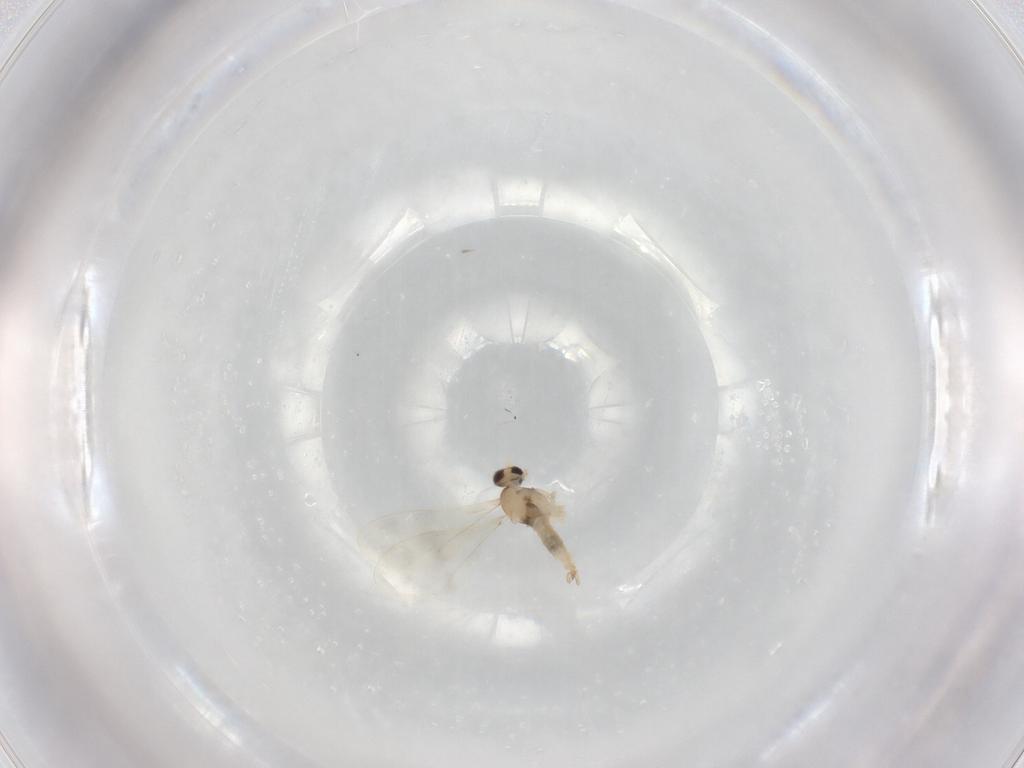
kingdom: Animalia
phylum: Arthropoda
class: Insecta
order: Diptera
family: Cecidomyiidae
